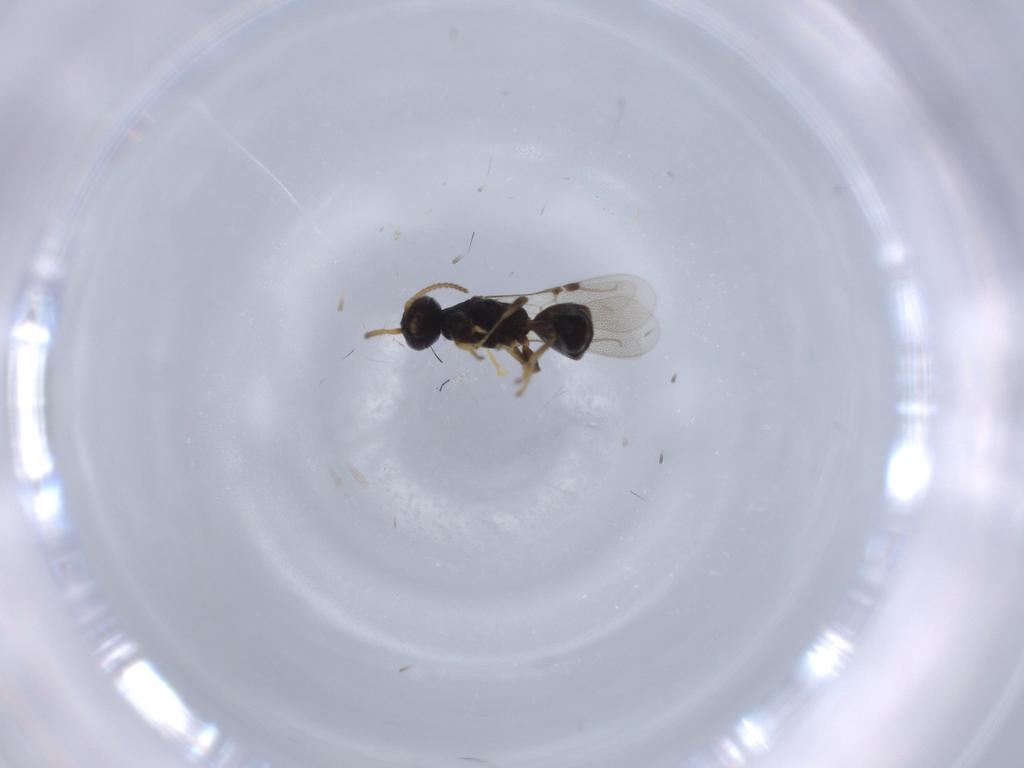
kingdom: Animalia
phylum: Arthropoda
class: Insecta
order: Hymenoptera
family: Bethylidae
